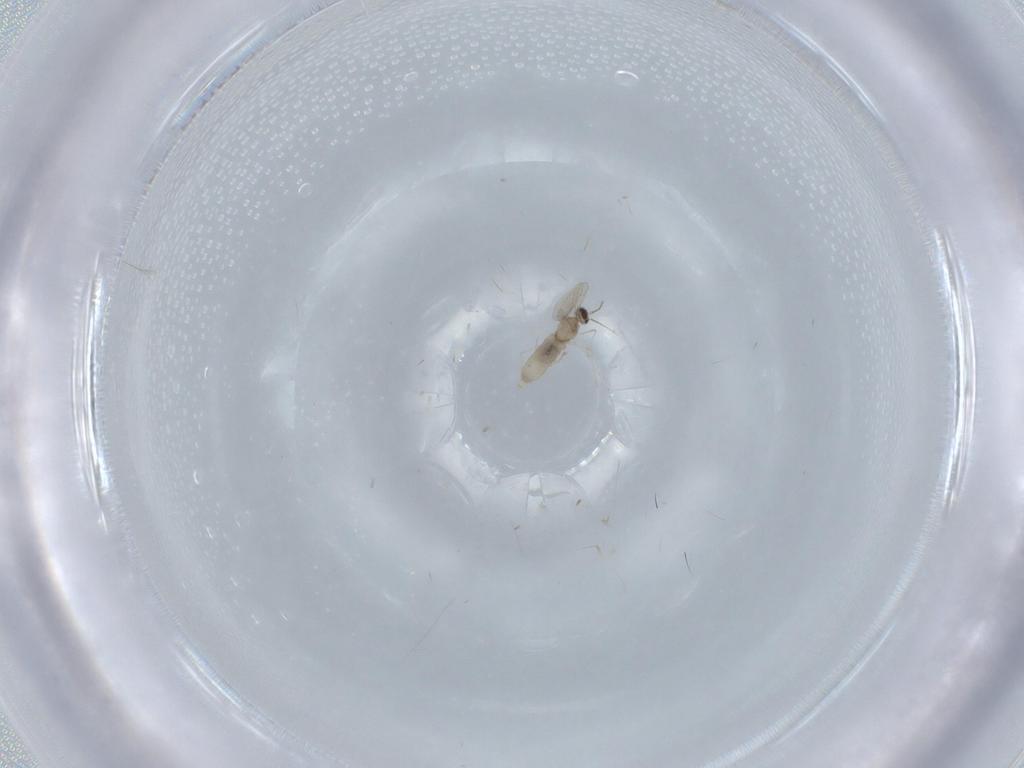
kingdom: Animalia
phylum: Arthropoda
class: Insecta
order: Diptera
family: Cecidomyiidae
